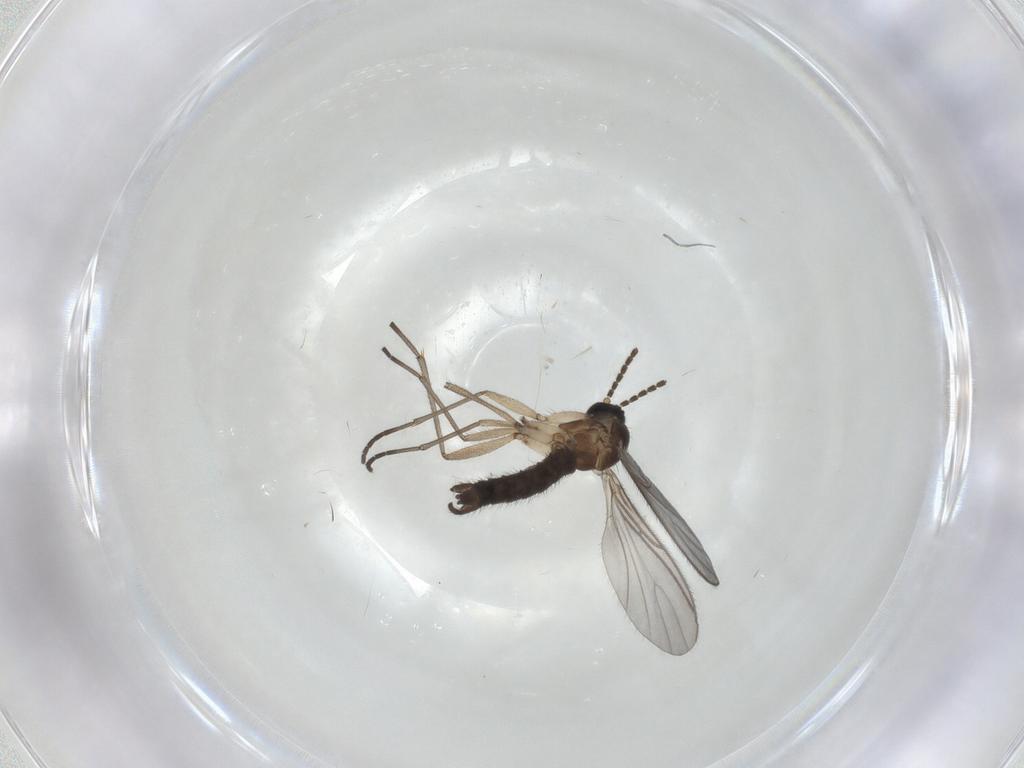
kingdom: Animalia
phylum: Arthropoda
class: Insecta
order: Diptera
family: Sciaridae
